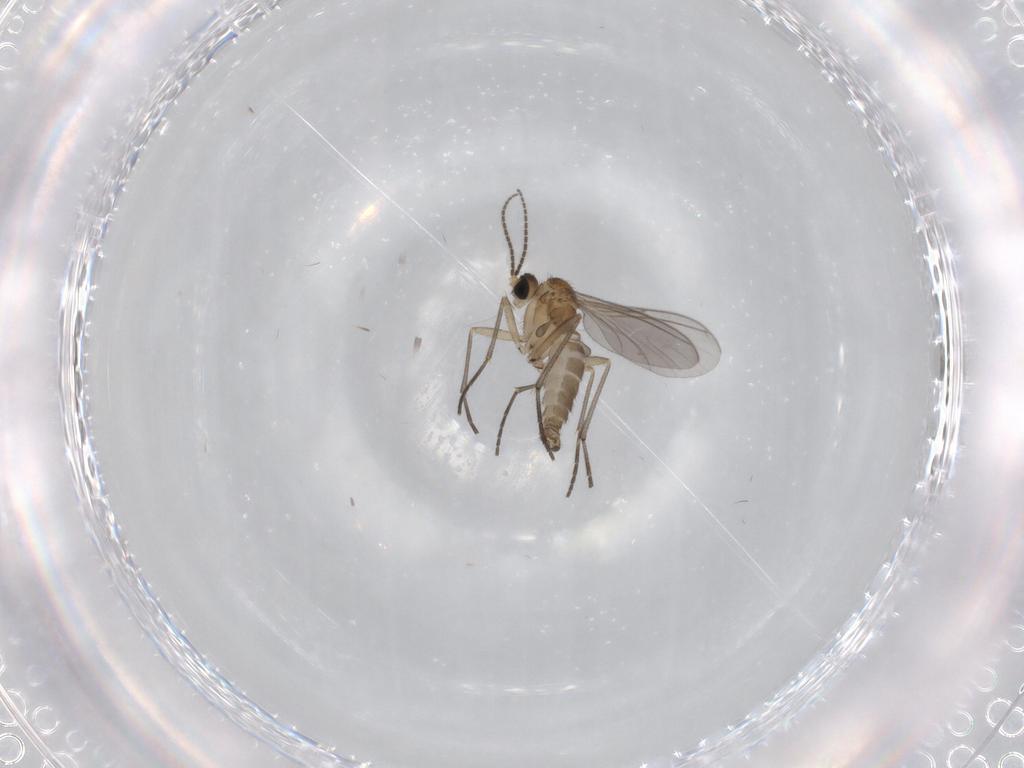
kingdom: Animalia
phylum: Arthropoda
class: Insecta
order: Diptera
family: Sciaridae
